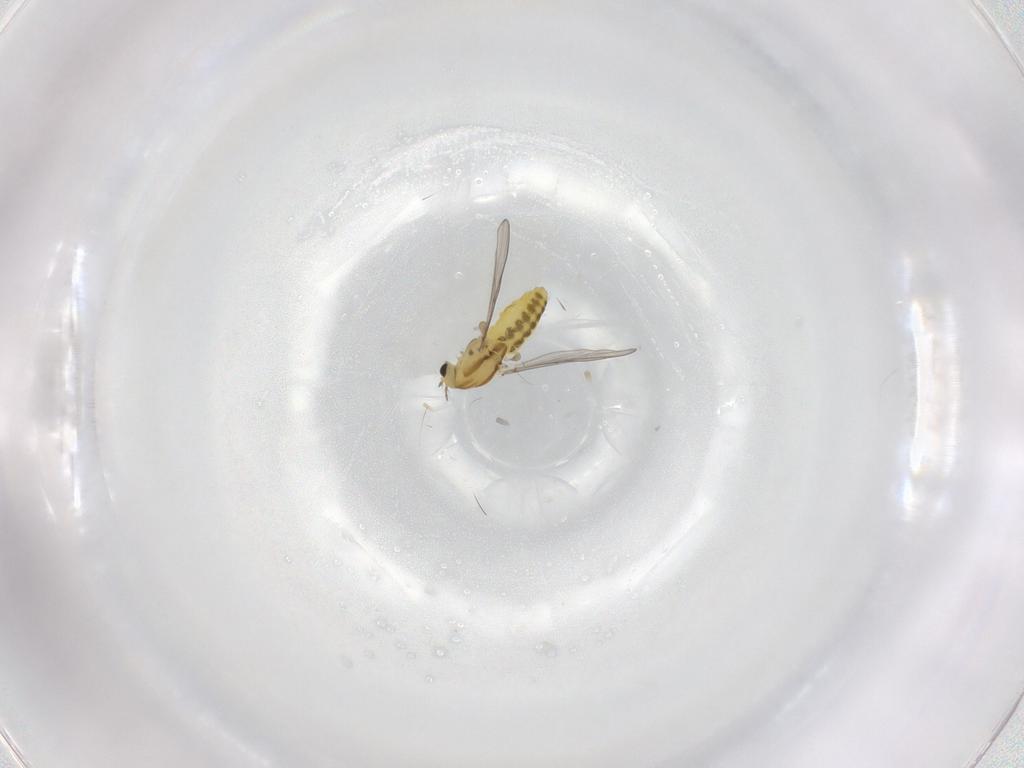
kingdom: Animalia
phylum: Arthropoda
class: Insecta
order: Diptera
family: Chironomidae
